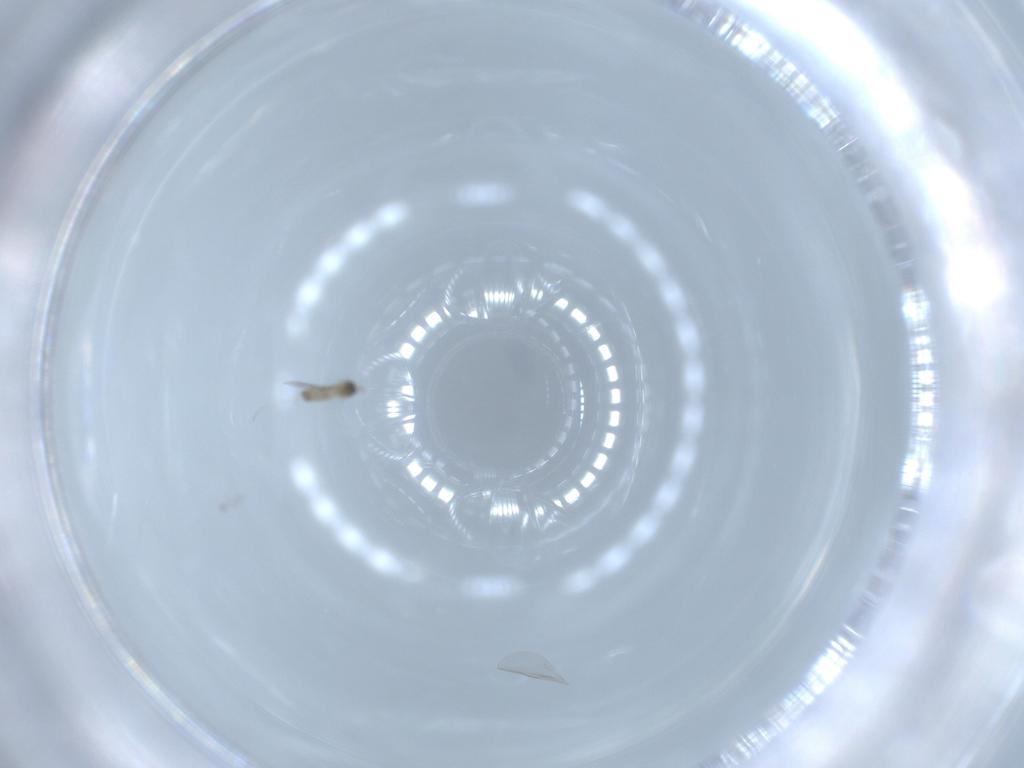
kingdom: Animalia
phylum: Arthropoda
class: Insecta
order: Diptera
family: Cecidomyiidae
